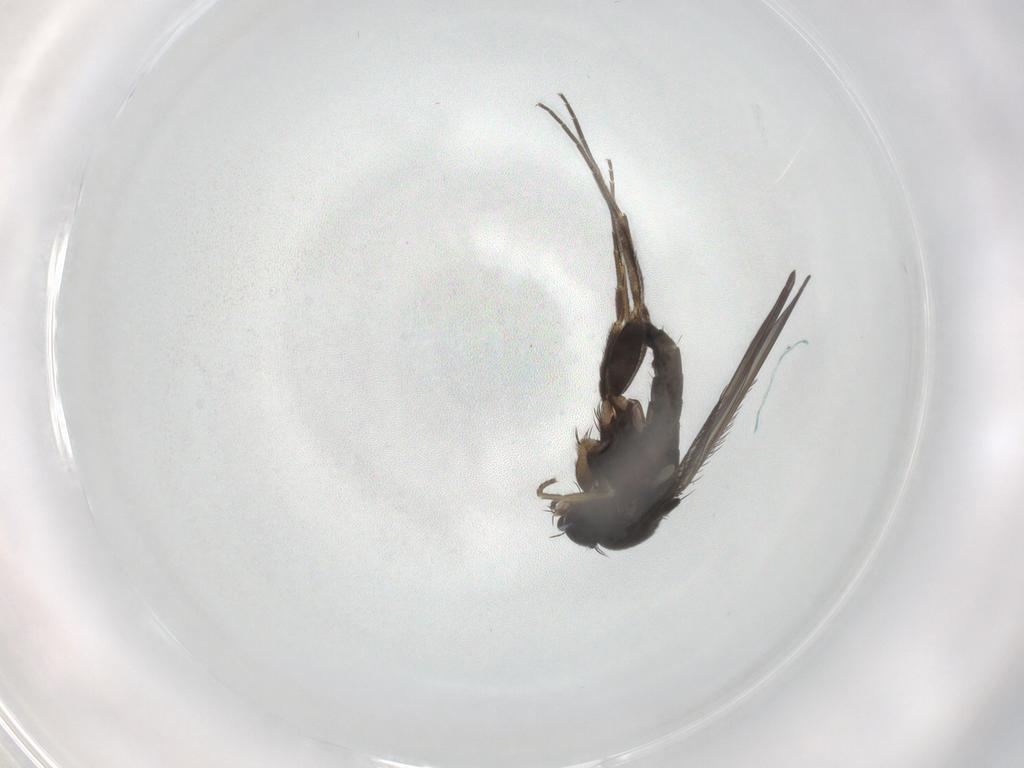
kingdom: Animalia
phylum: Arthropoda
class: Insecta
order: Diptera
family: Phoridae
